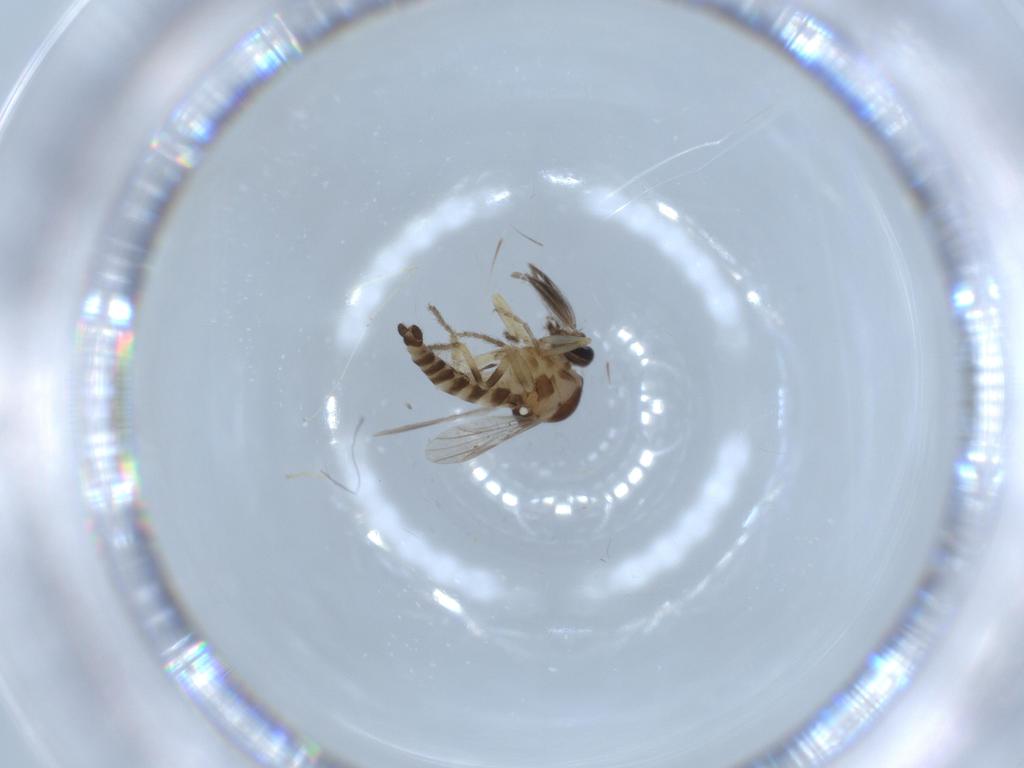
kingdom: Animalia
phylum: Arthropoda
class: Insecta
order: Diptera
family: Ceratopogonidae
